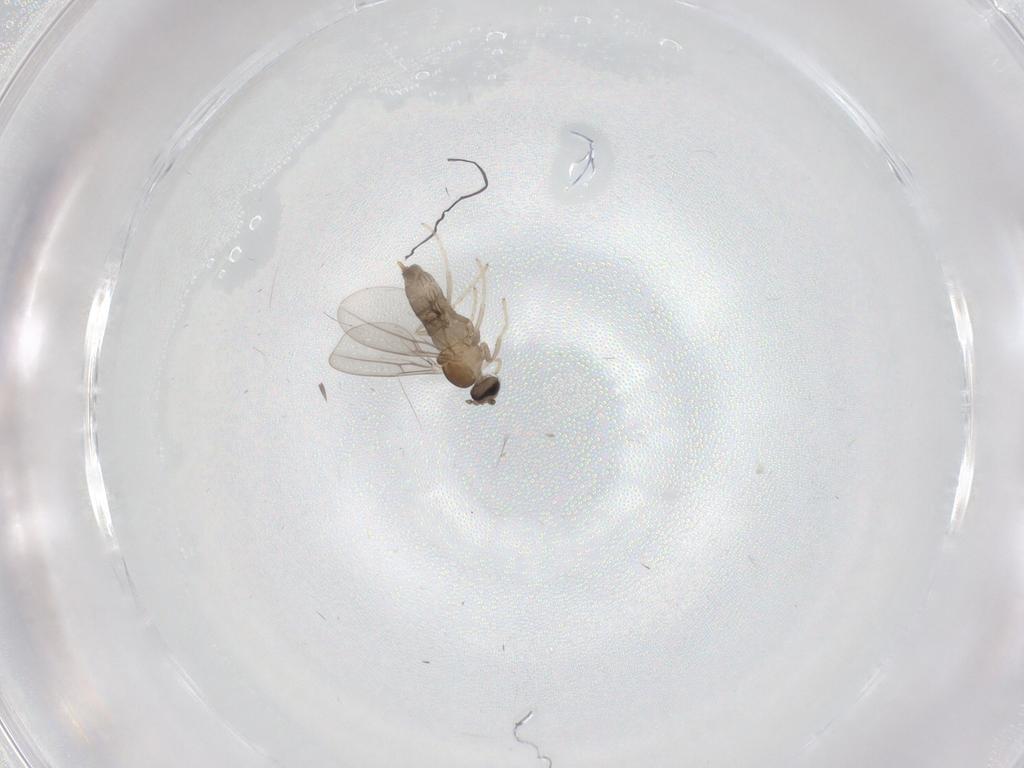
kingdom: Animalia
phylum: Arthropoda
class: Insecta
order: Diptera
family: Cecidomyiidae
